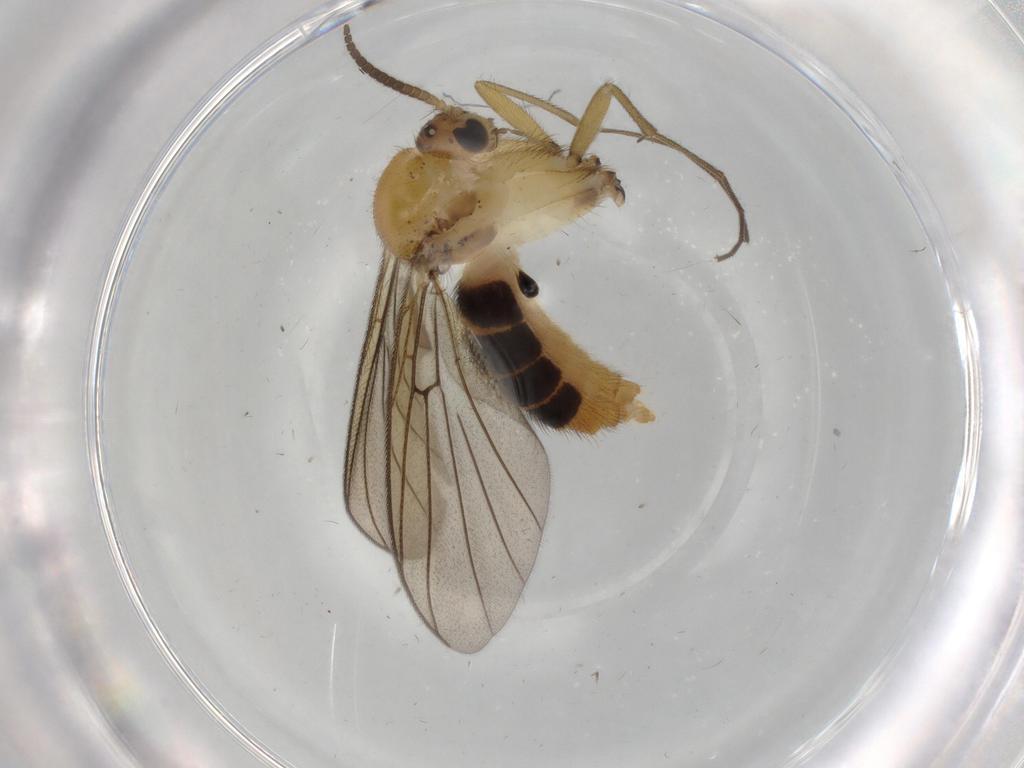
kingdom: Animalia
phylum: Arthropoda
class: Insecta
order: Diptera
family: Mycetophilidae
